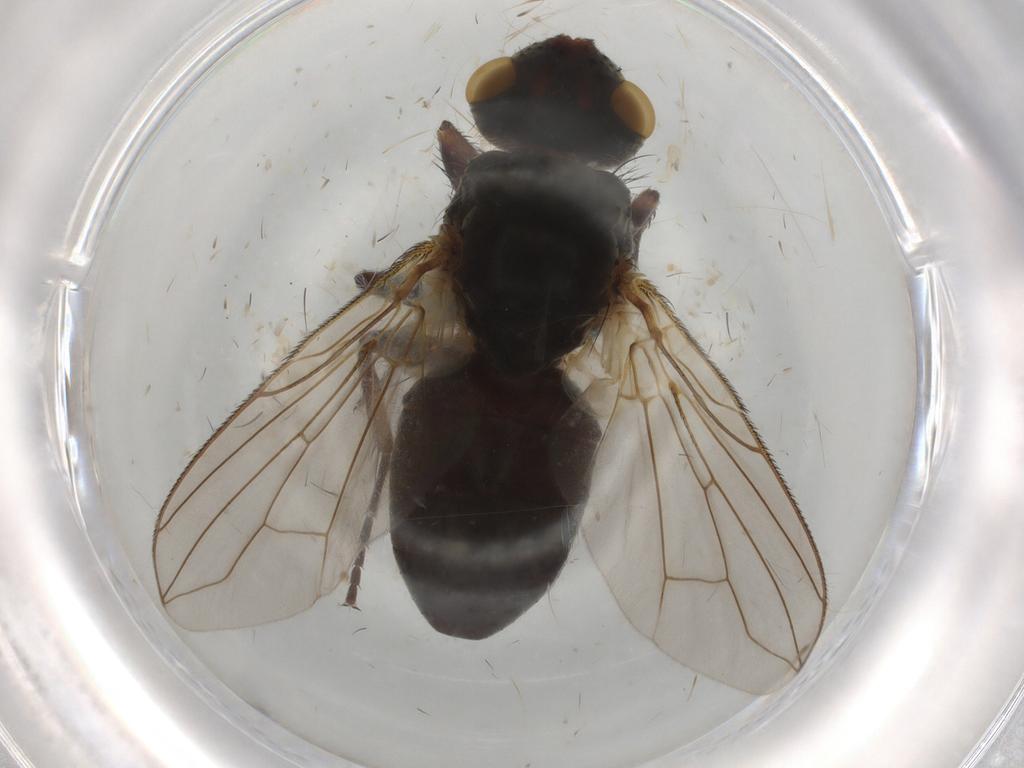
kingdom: Animalia
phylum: Arthropoda
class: Insecta
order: Diptera
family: Tachinidae
